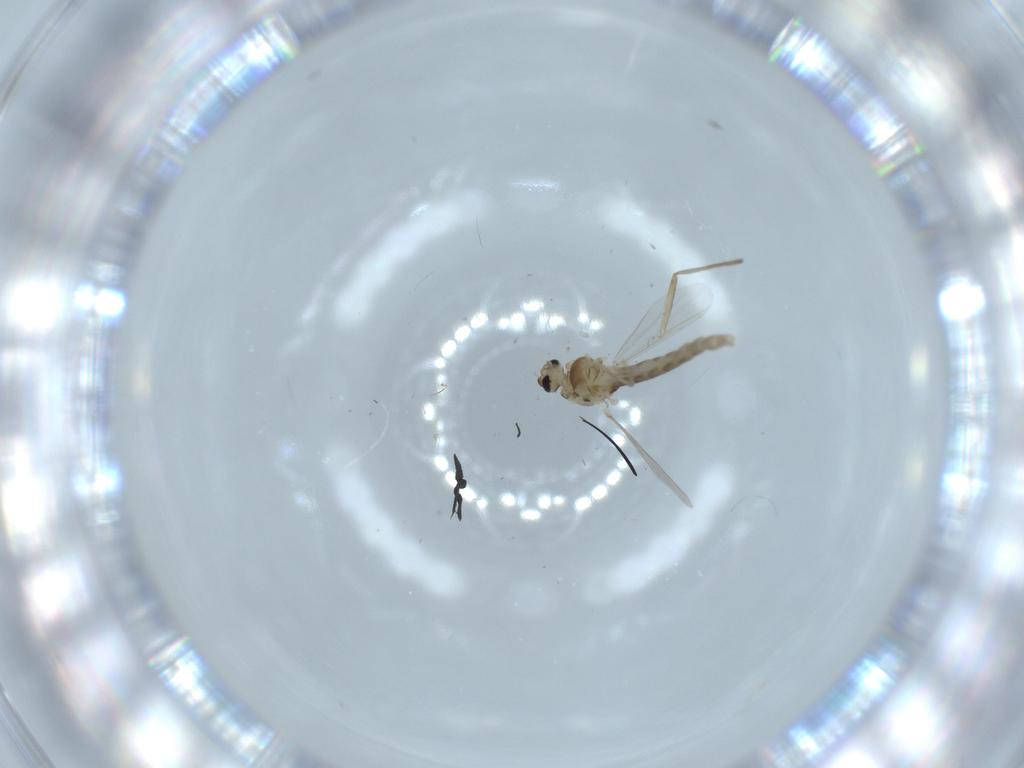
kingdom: Animalia
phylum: Arthropoda
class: Insecta
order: Diptera
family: Chironomidae
